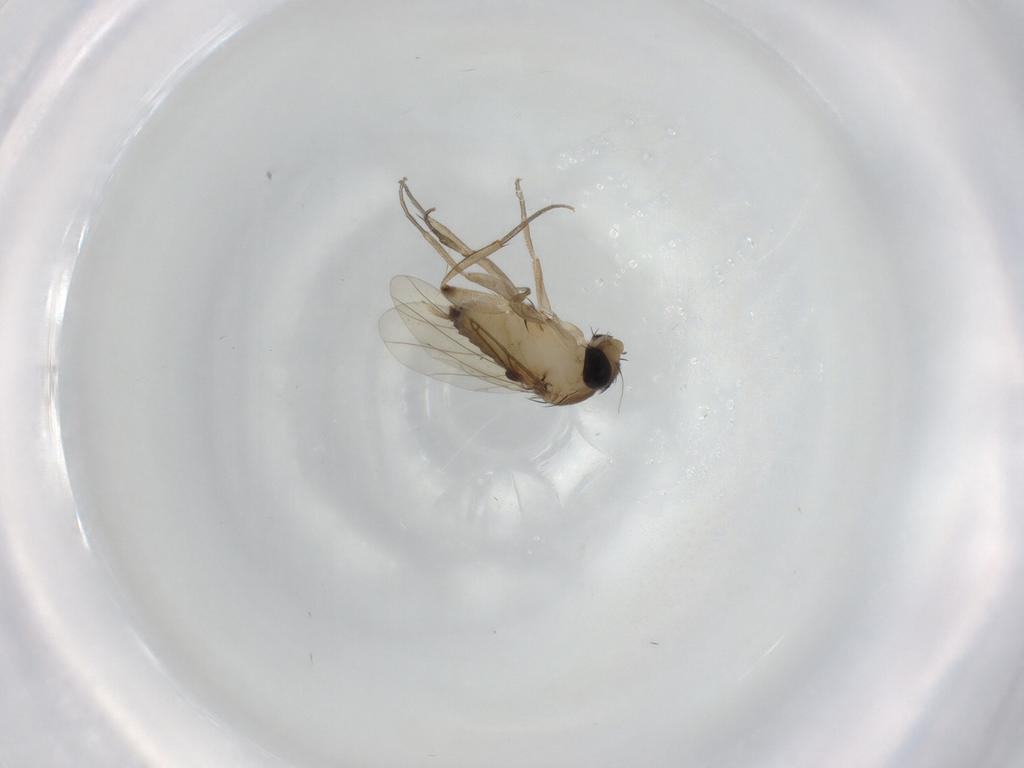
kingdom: Animalia
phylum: Arthropoda
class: Insecta
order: Diptera
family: Phoridae
